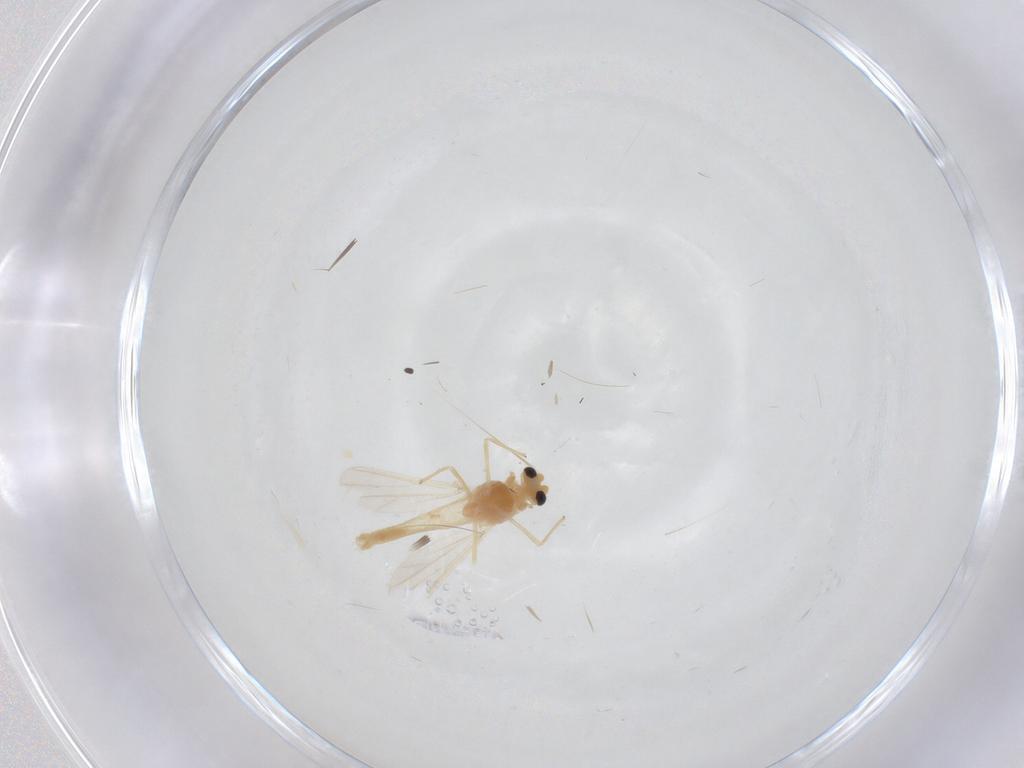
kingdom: Animalia
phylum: Arthropoda
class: Insecta
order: Diptera
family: Chironomidae
